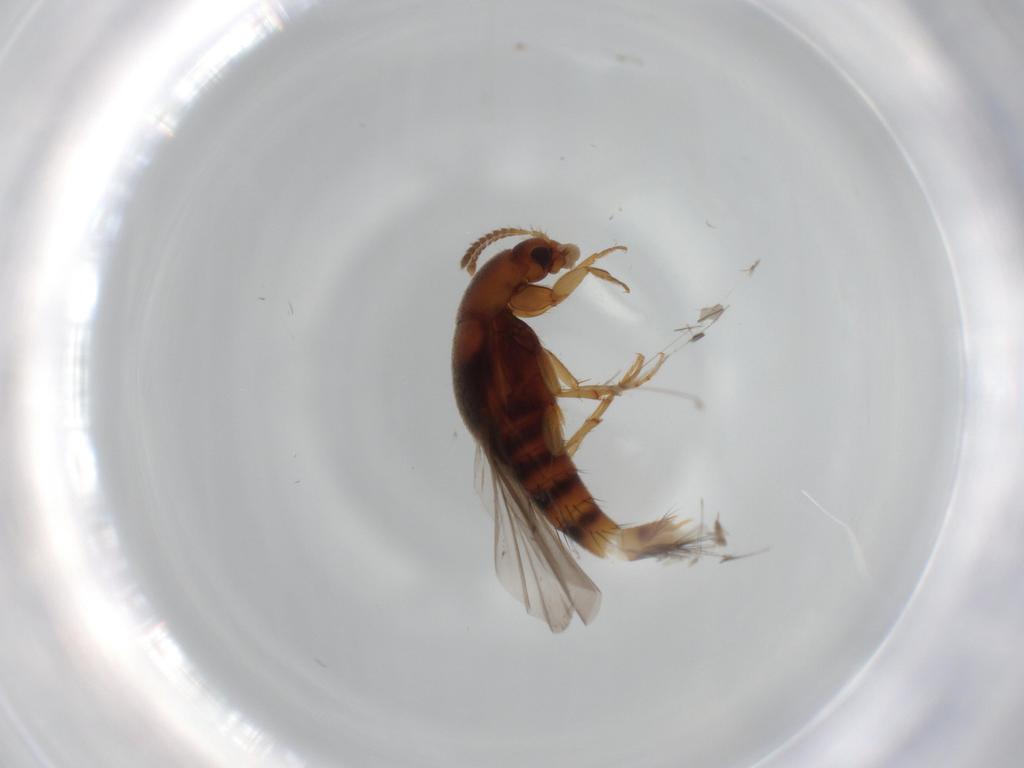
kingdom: Animalia
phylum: Arthropoda
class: Insecta
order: Coleoptera
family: Staphylinidae
